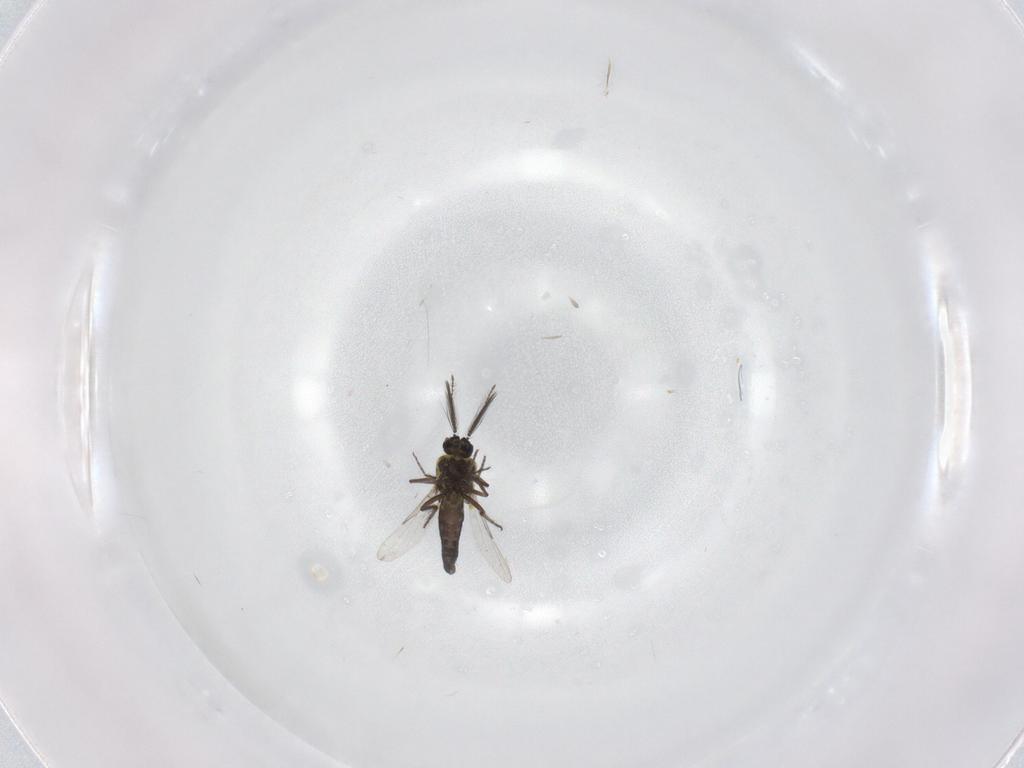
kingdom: Animalia
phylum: Arthropoda
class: Insecta
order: Diptera
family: Ceratopogonidae
